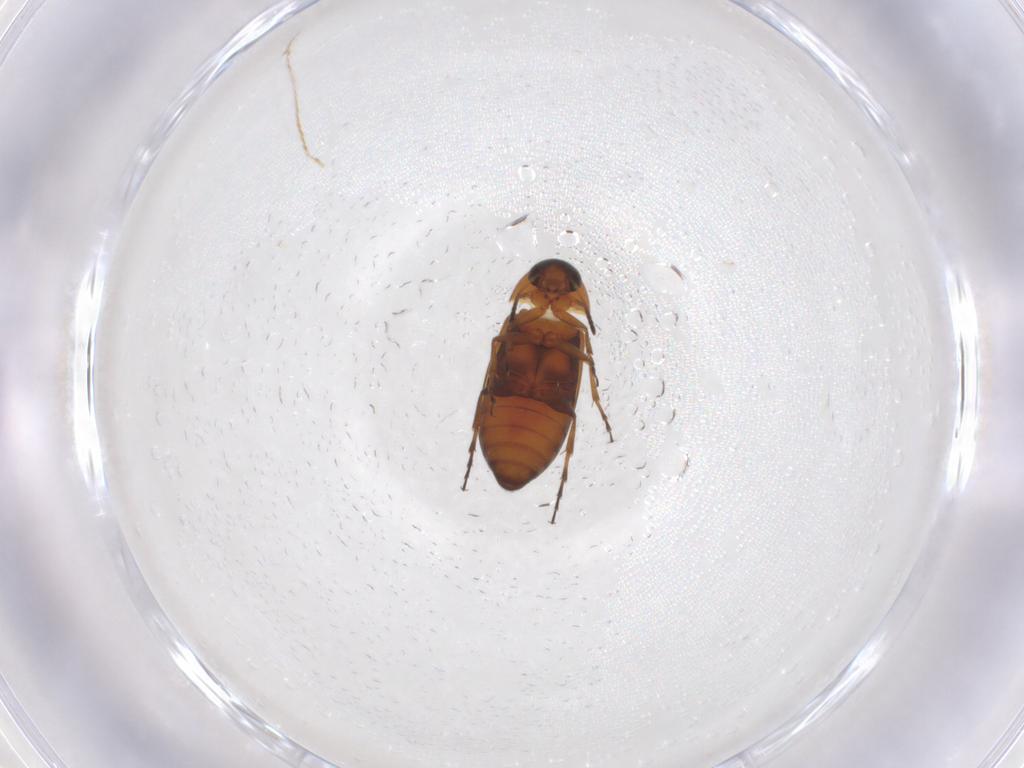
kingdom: Animalia
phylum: Arthropoda
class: Insecta
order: Coleoptera
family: Scraptiidae
